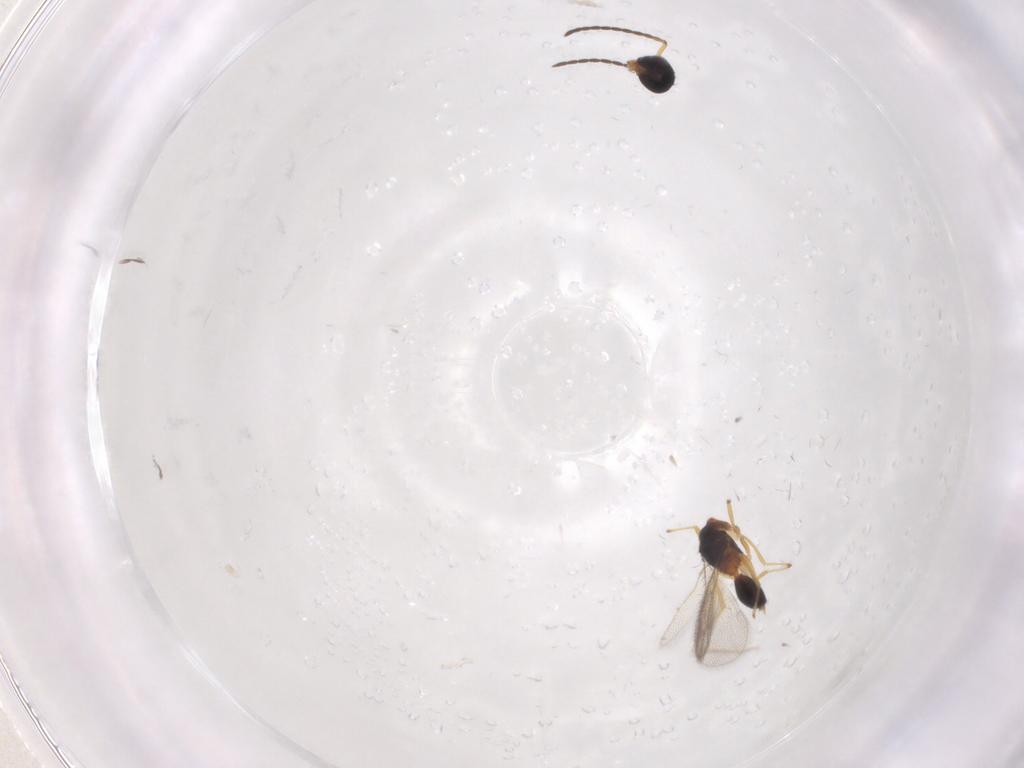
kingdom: Animalia
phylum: Arthropoda
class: Insecta
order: Hymenoptera
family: Diparidae
